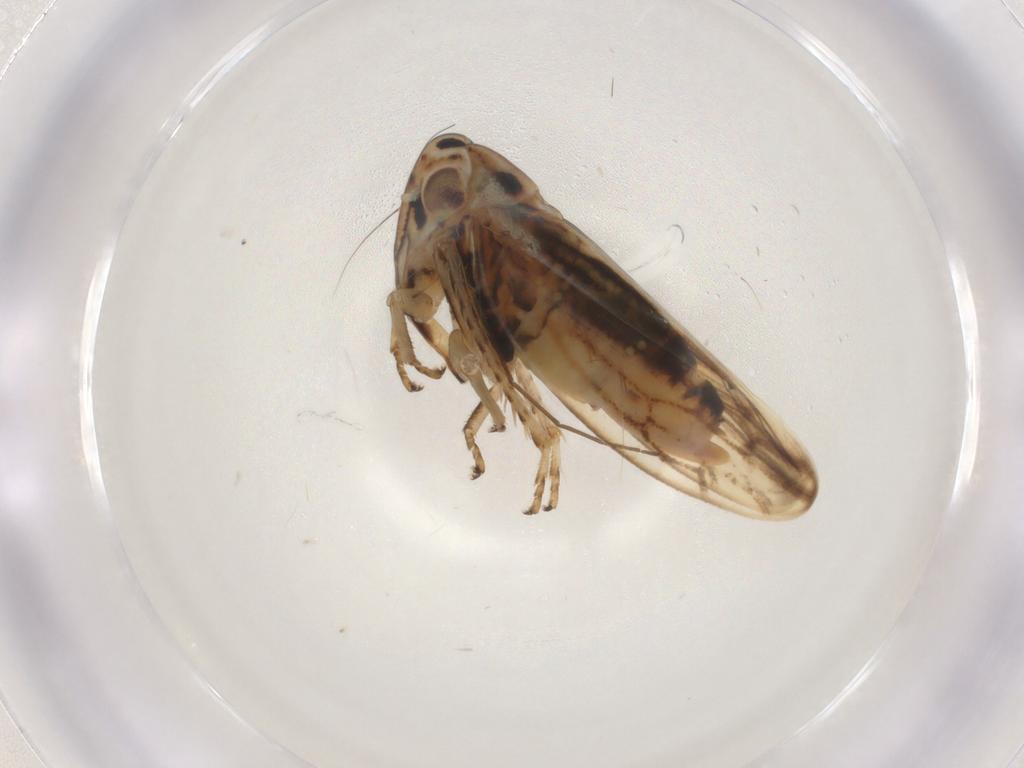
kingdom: Animalia
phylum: Arthropoda
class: Insecta
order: Hemiptera
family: Cicadellidae
